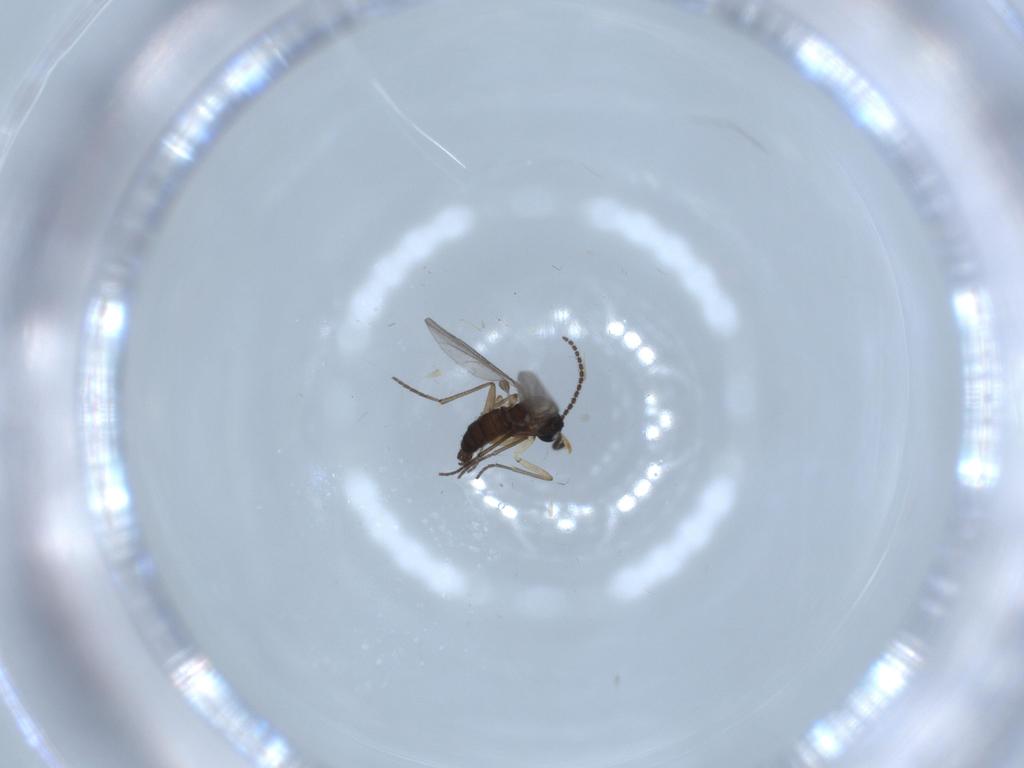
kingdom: Animalia
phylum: Arthropoda
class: Insecta
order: Diptera
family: Sciaridae
